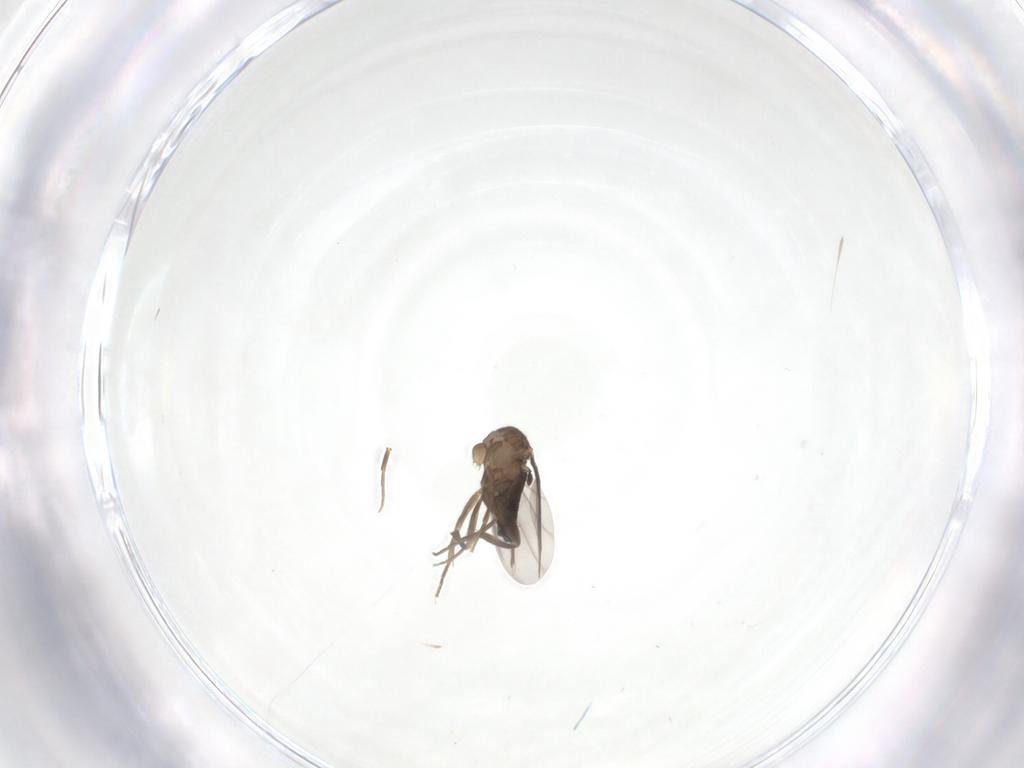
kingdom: Animalia
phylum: Arthropoda
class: Insecta
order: Diptera
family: Phoridae
